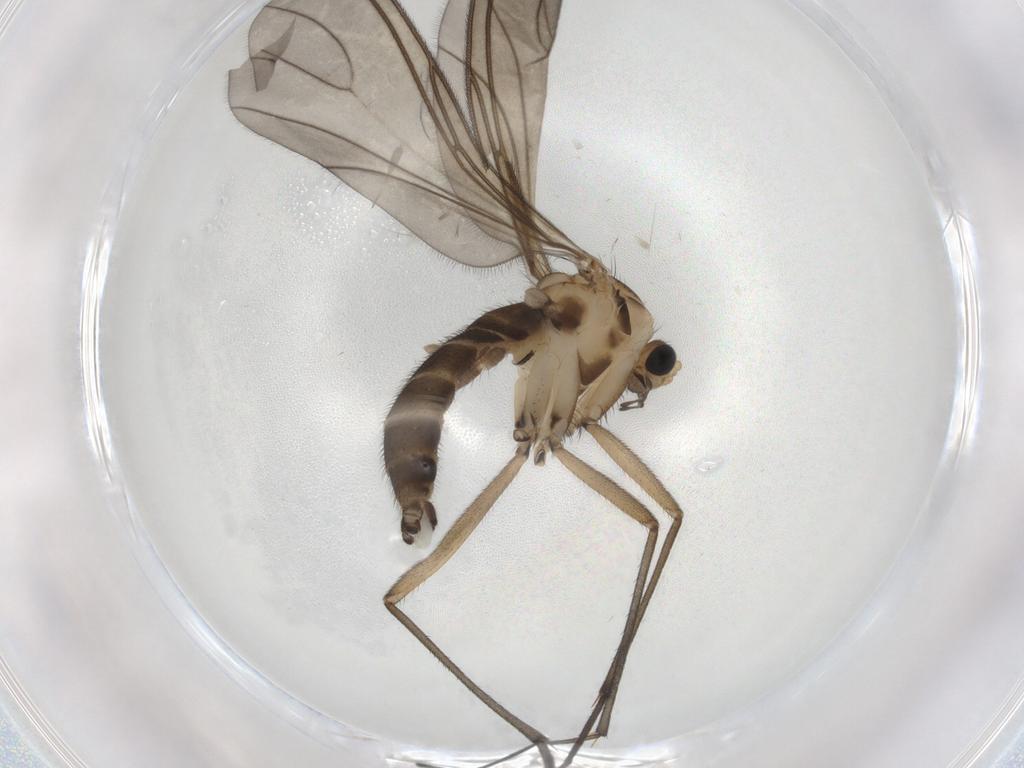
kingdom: Animalia
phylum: Arthropoda
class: Insecta
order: Diptera
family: Sciaridae
